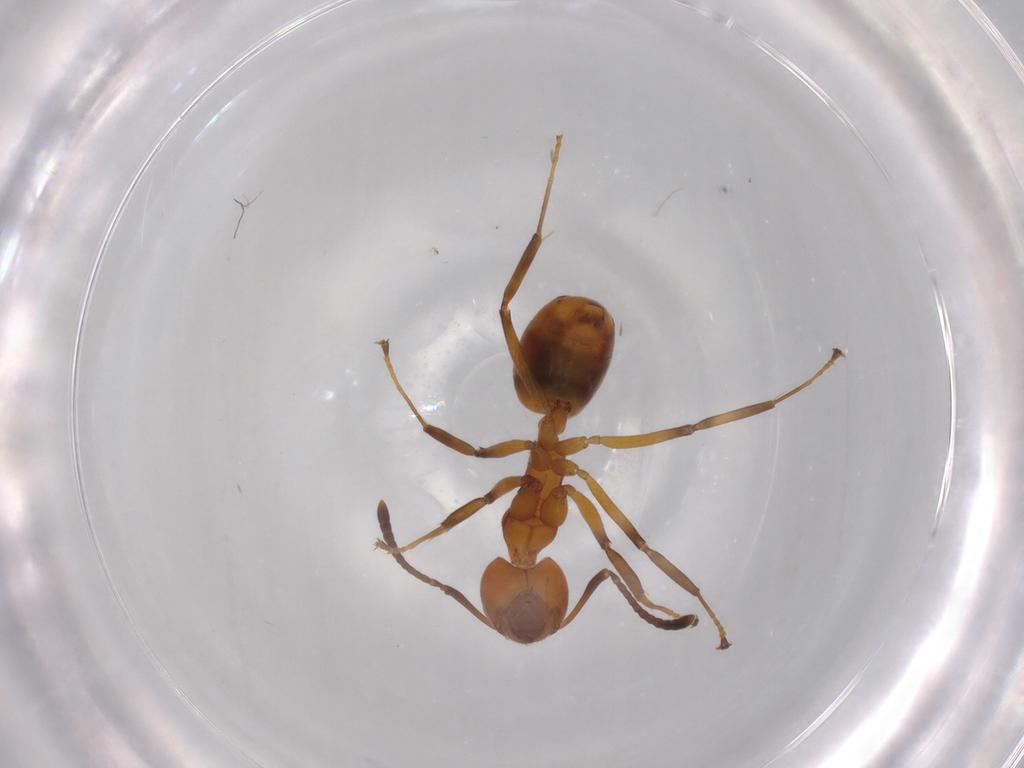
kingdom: Animalia
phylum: Arthropoda
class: Insecta
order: Hymenoptera
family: Formicidae
